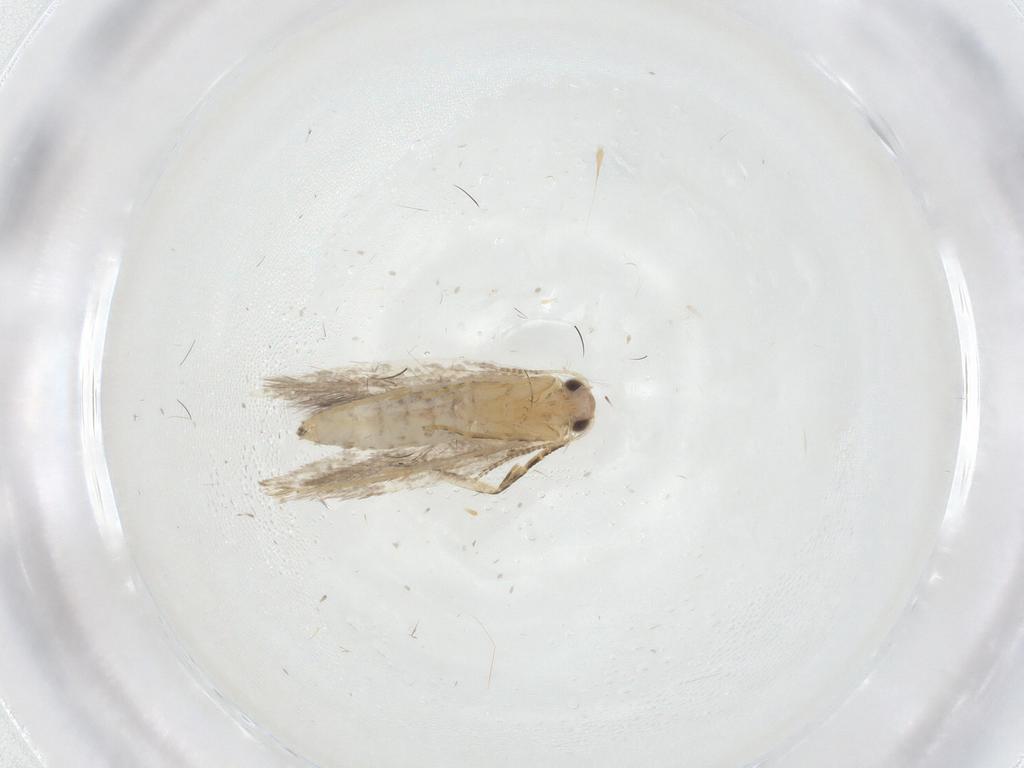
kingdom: Animalia
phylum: Arthropoda
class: Insecta
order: Lepidoptera
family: Tineidae
